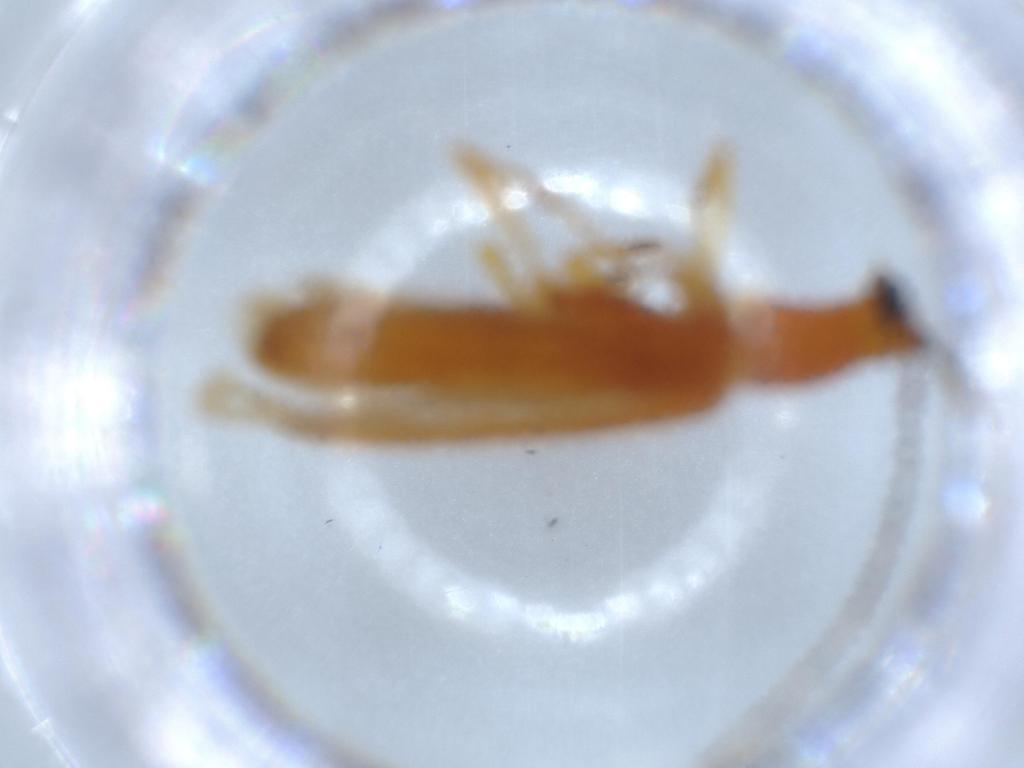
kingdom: Animalia
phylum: Arthropoda
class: Insecta
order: Coleoptera
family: Cerambycidae
